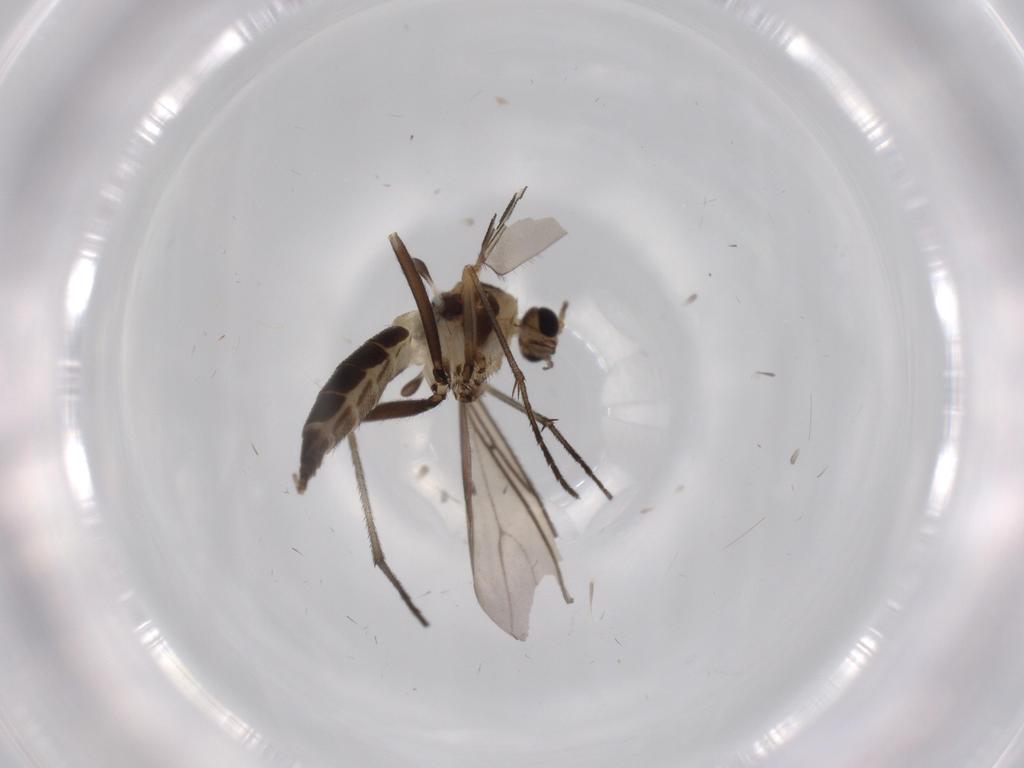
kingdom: Animalia
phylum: Arthropoda
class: Insecta
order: Diptera
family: Sciaridae
